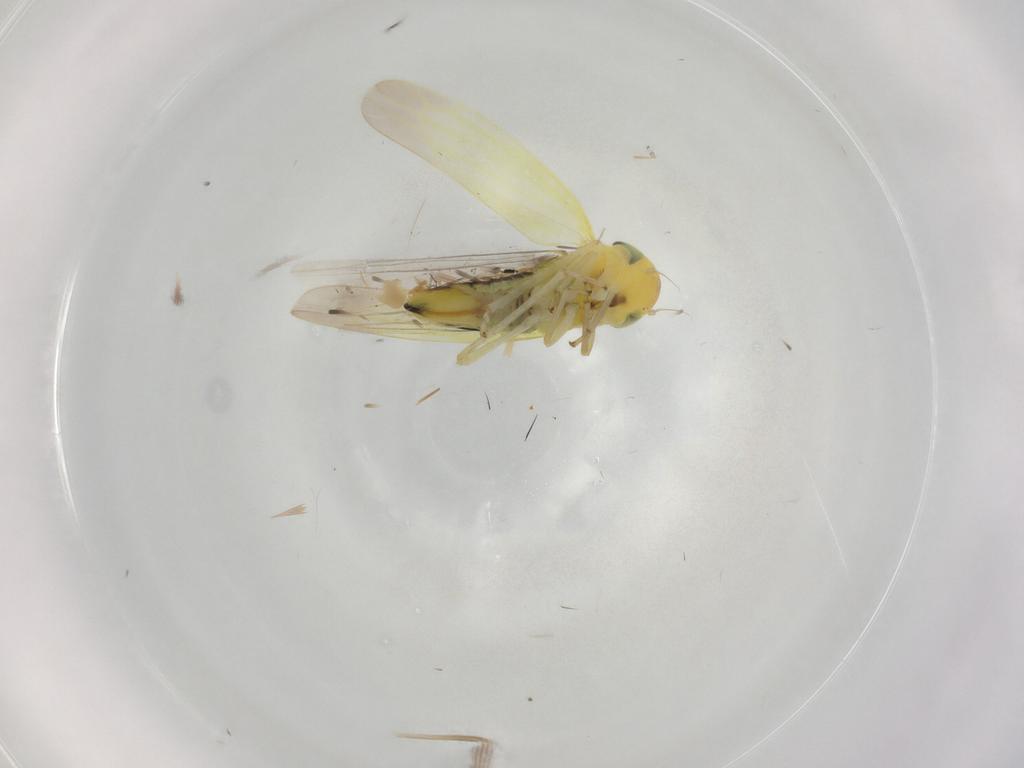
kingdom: Animalia
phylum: Arthropoda
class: Insecta
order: Hemiptera
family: Cicadellidae
